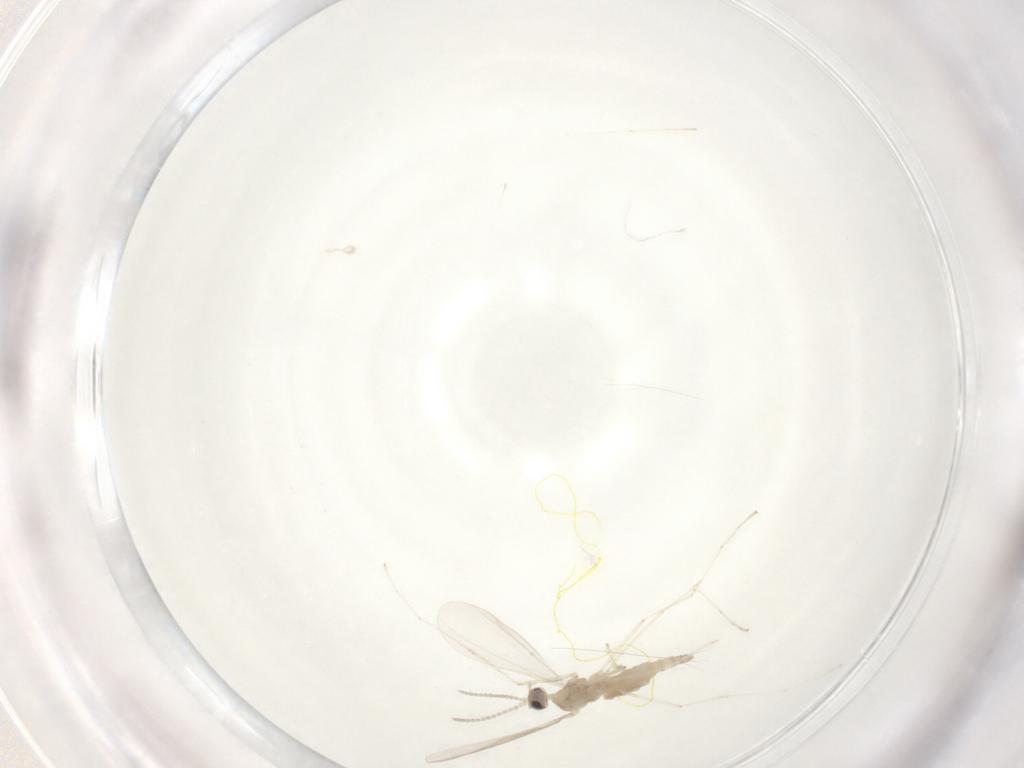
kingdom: Animalia
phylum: Arthropoda
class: Insecta
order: Diptera
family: Cecidomyiidae
